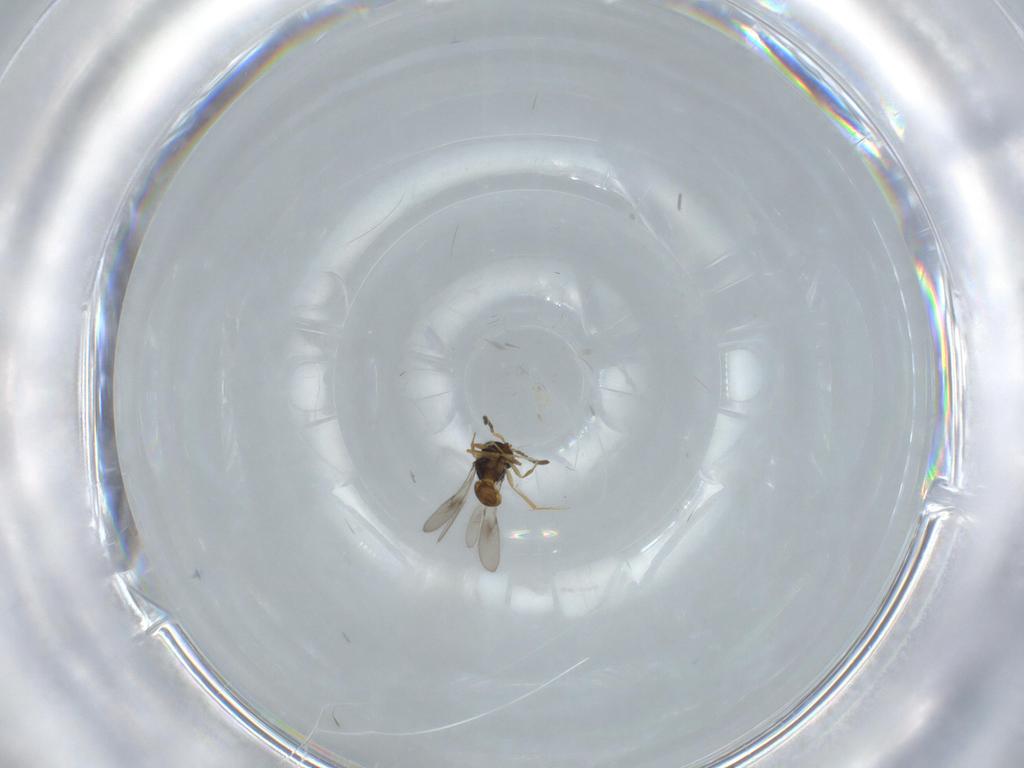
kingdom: Animalia
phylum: Arthropoda
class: Insecta
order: Hymenoptera
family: Scelionidae
